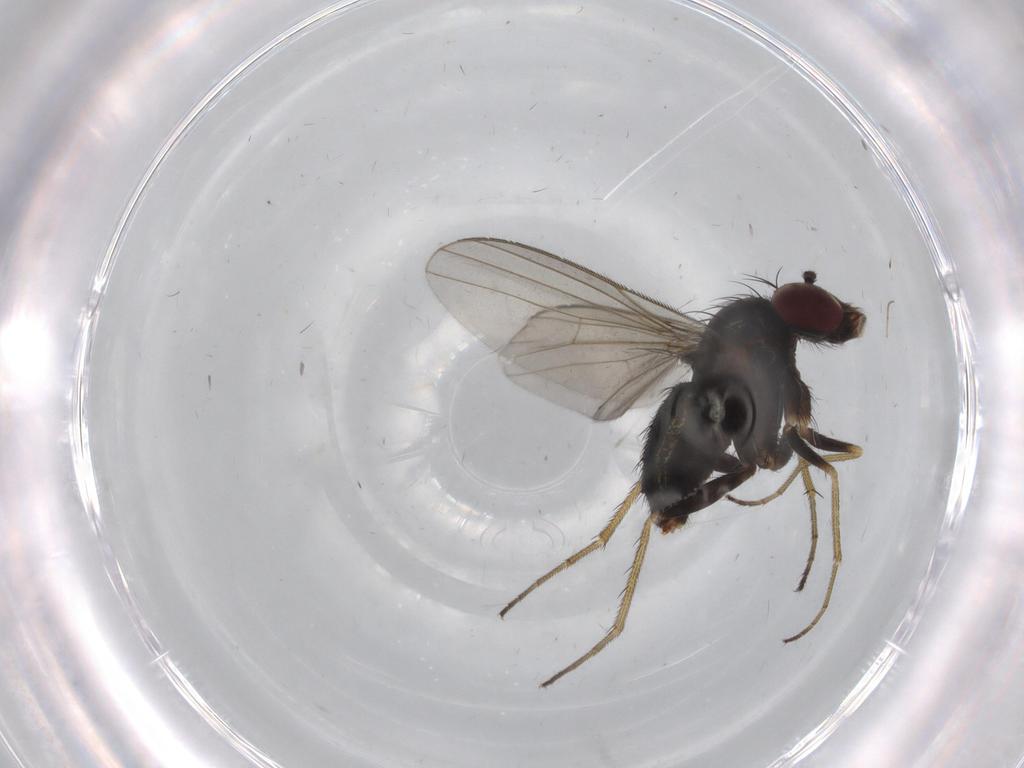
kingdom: Animalia
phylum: Arthropoda
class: Insecta
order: Diptera
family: Dolichopodidae
